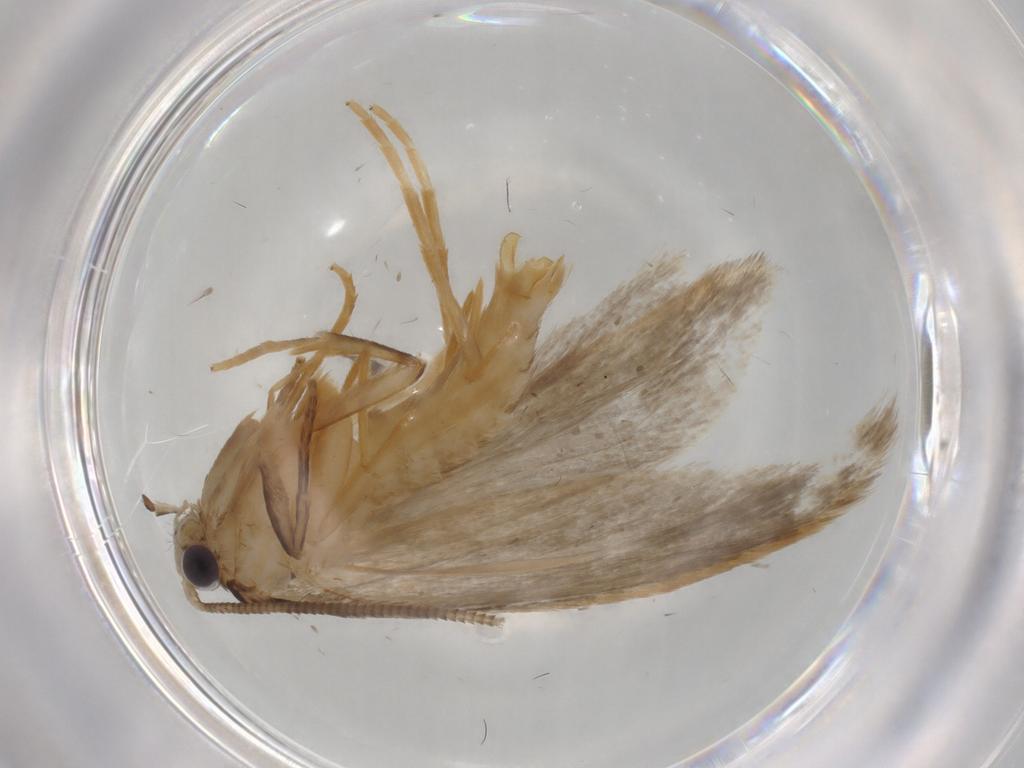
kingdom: Animalia
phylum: Arthropoda
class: Insecta
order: Lepidoptera
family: Tineidae
